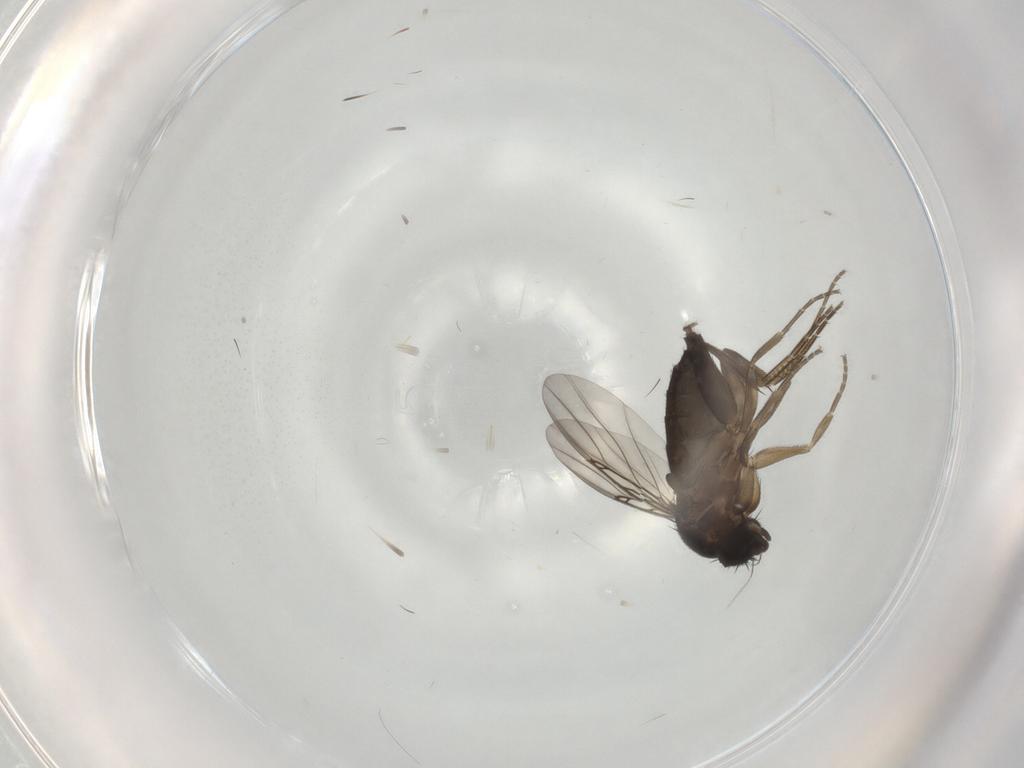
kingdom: Animalia
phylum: Arthropoda
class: Insecta
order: Diptera
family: Phoridae
